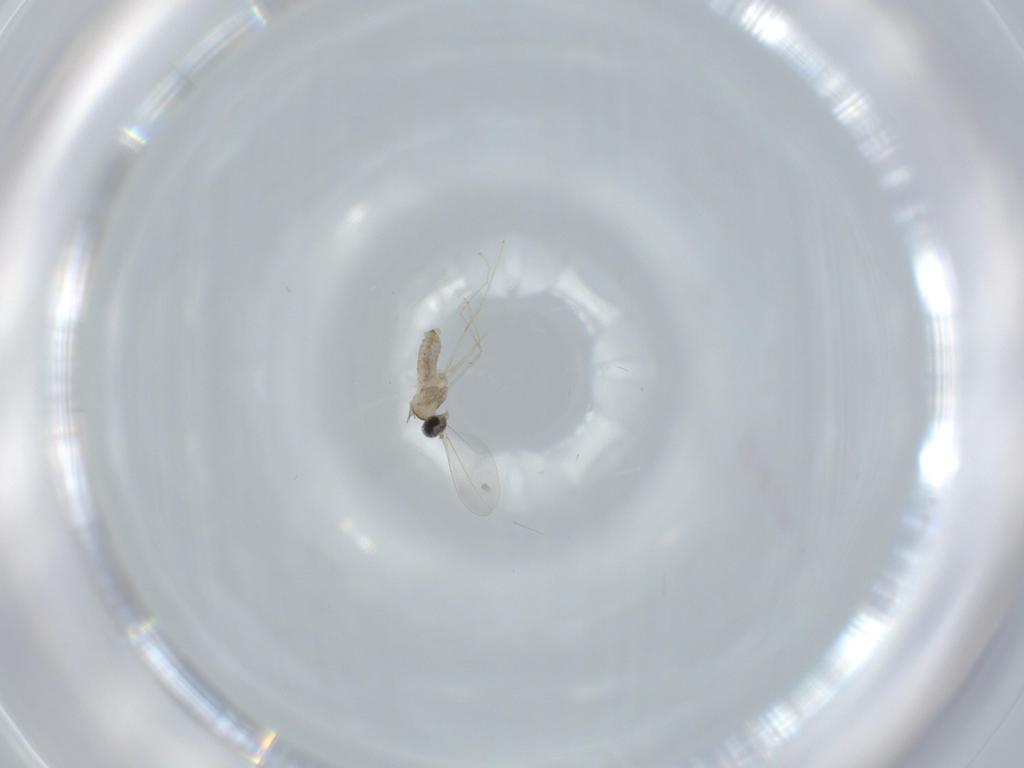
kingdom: Animalia
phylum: Arthropoda
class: Insecta
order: Diptera
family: Cecidomyiidae
